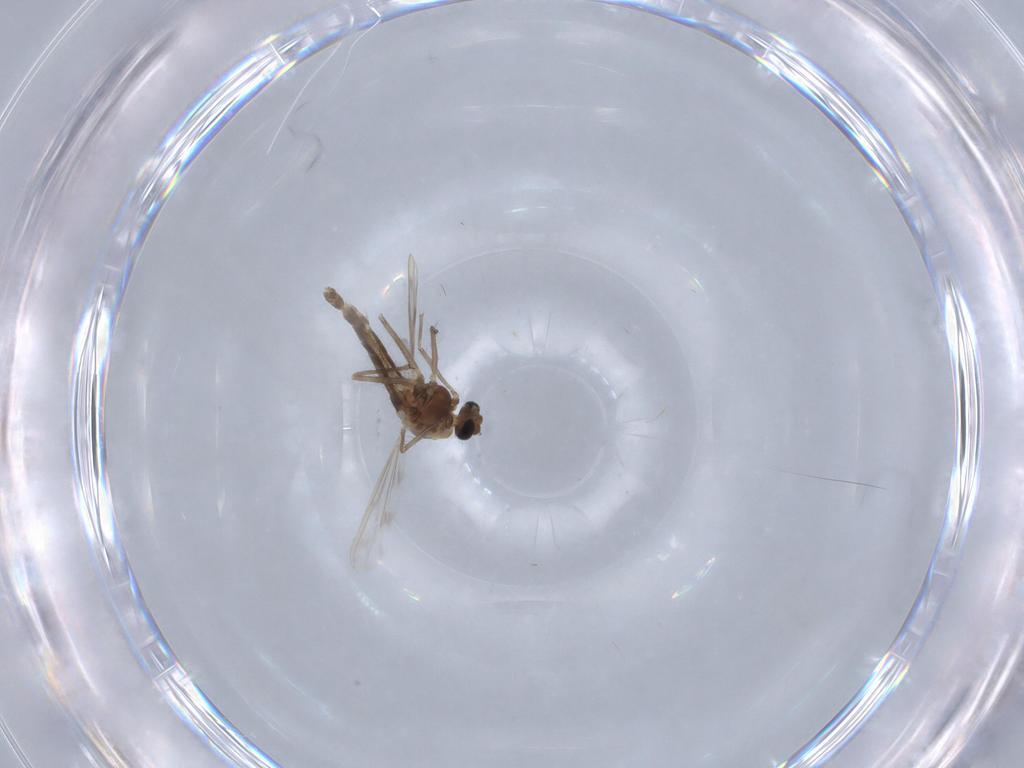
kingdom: Animalia
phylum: Arthropoda
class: Insecta
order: Diptera
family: Chironomidae
